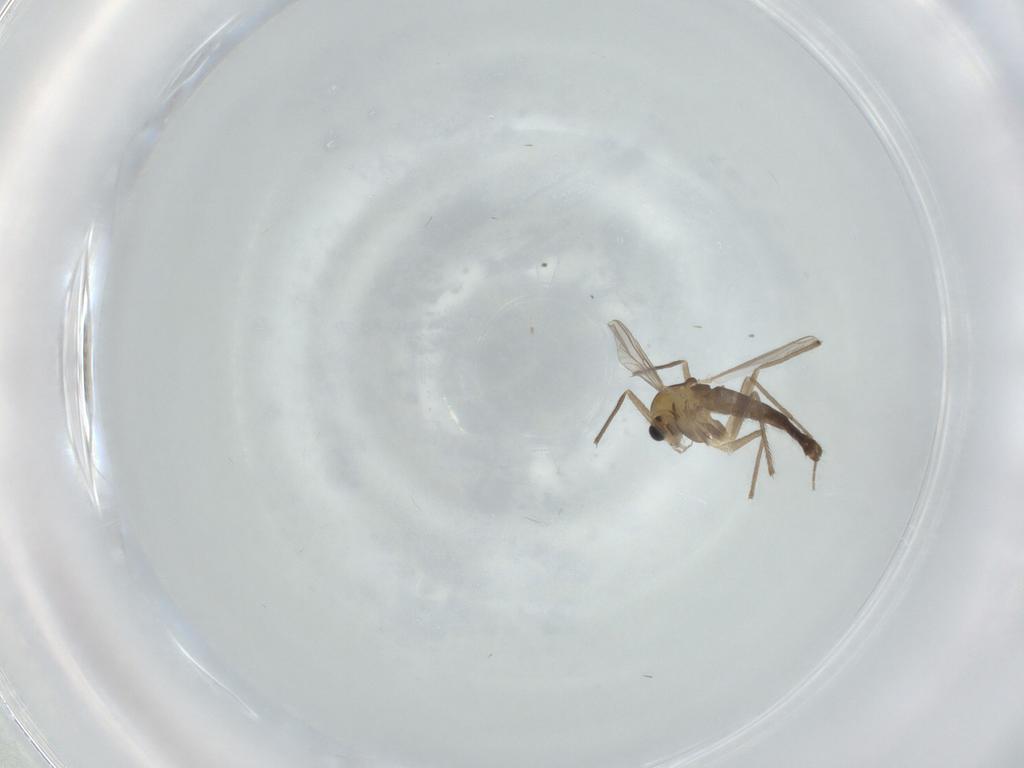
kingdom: Animalia
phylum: Arthropoda
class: Insecta
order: Diptera
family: Chironomidae
